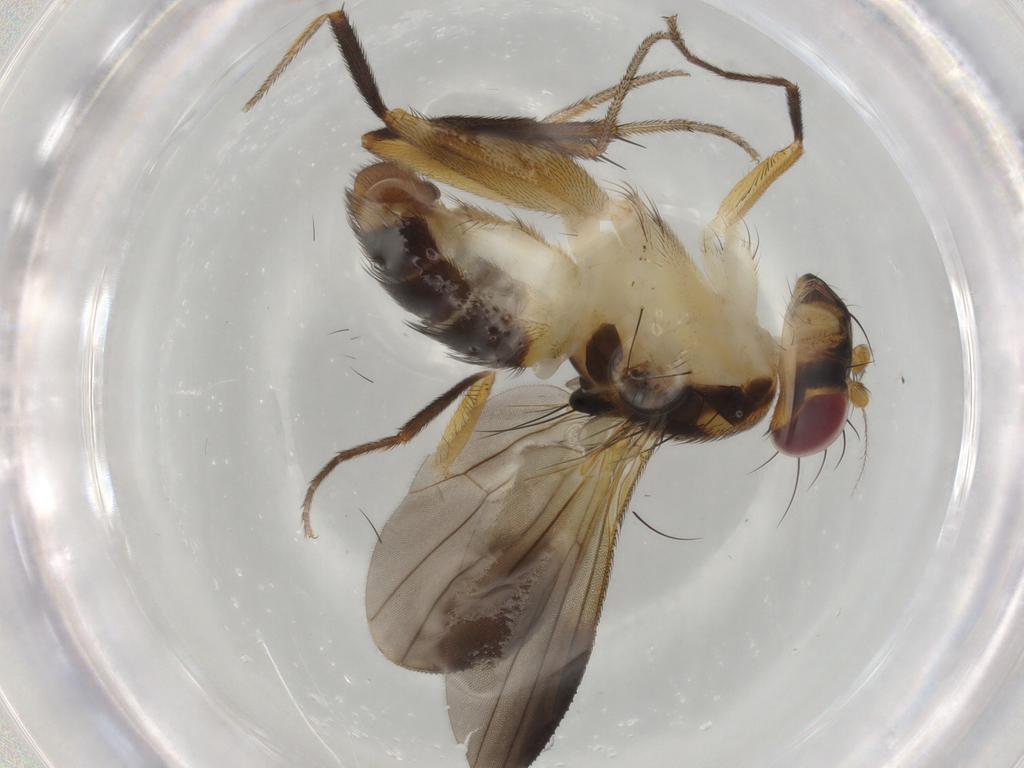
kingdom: Animalia
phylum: Arthropoda
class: Insecta
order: Diptera
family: Chironomidae
